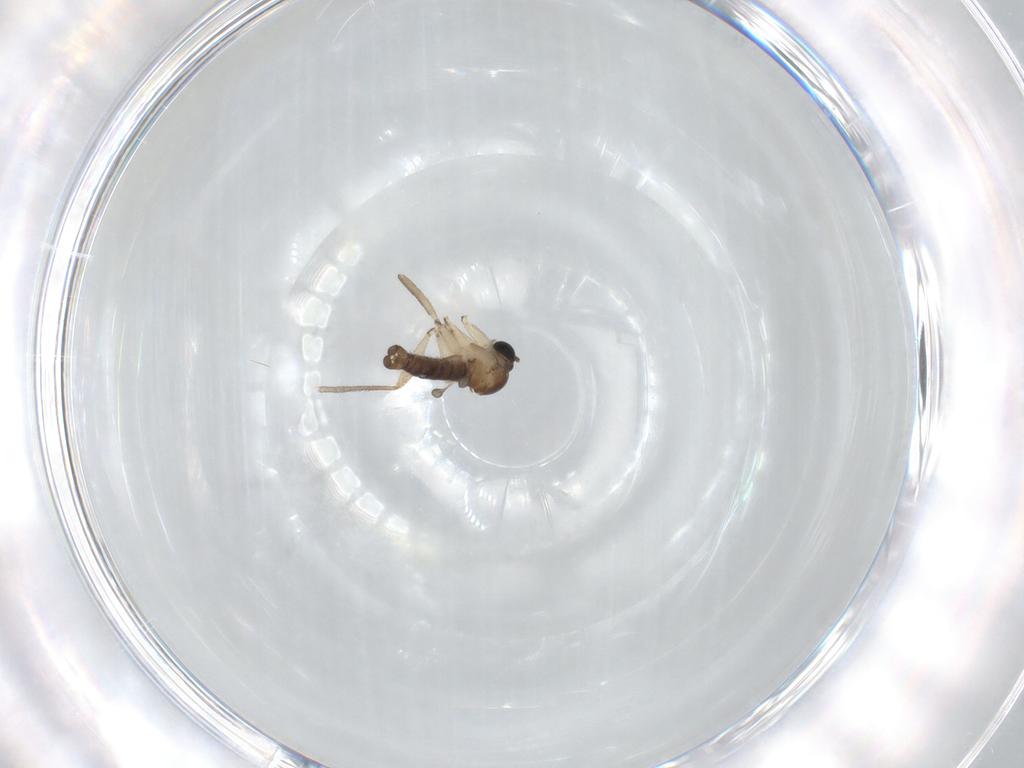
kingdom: Animalia
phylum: Arthropoda
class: Insecta
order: Diptera
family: Sciaridae
